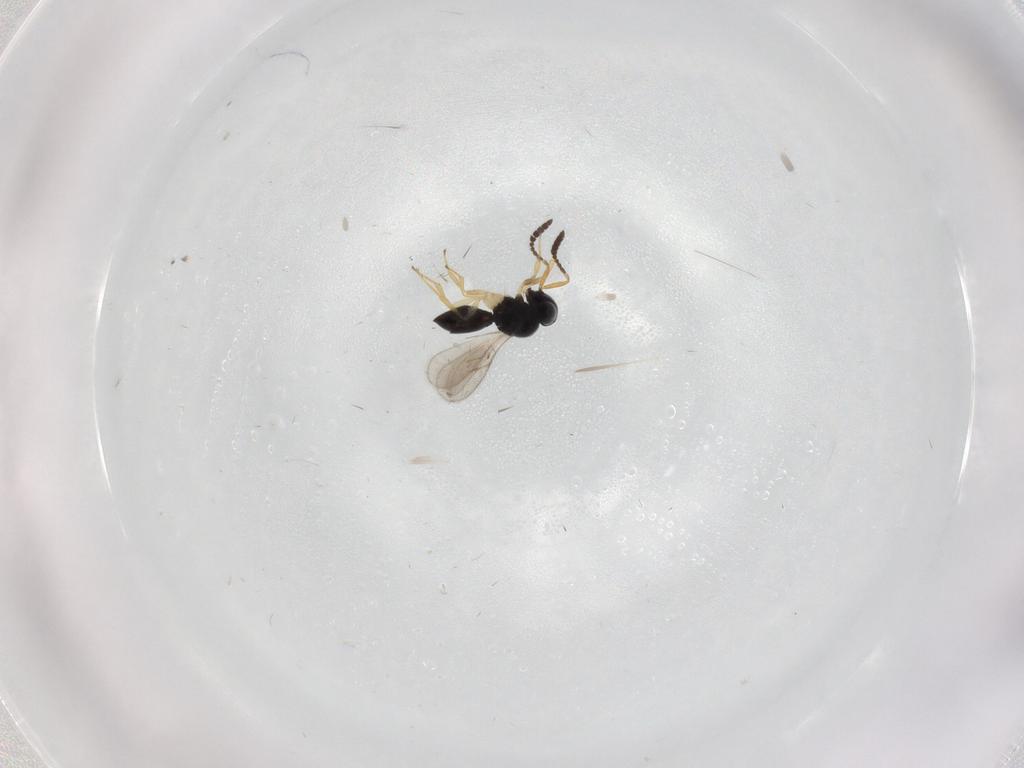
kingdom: Animalia
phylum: Arthropoda
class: Insecta
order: Hymenoptera
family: Scelionidae
